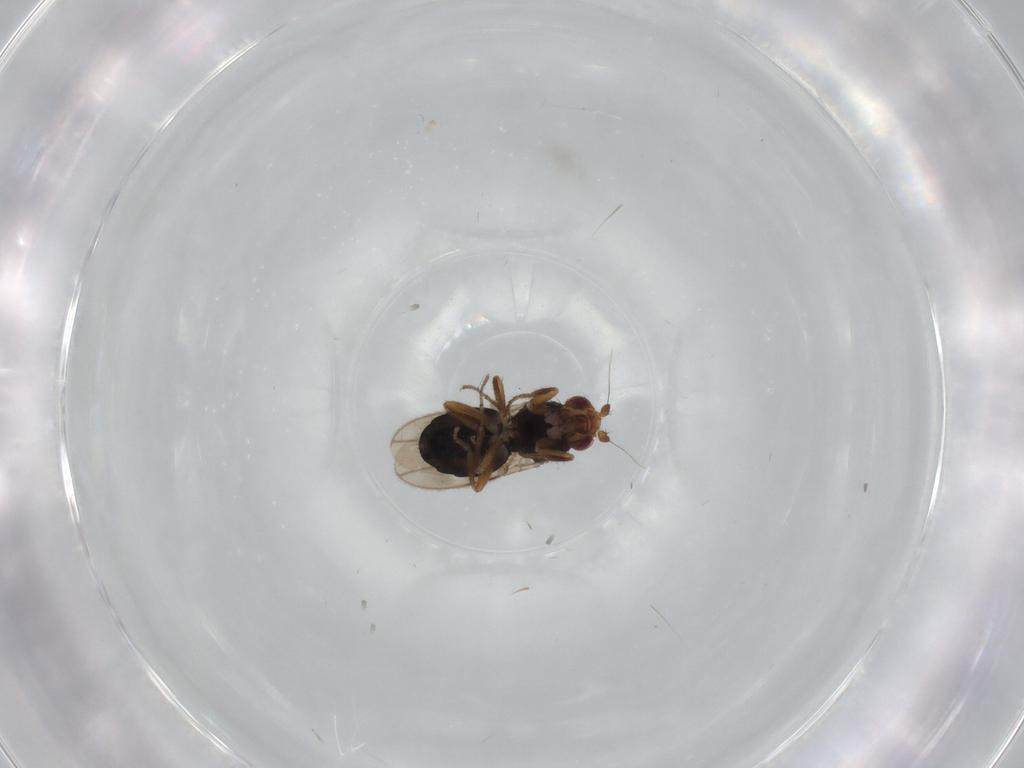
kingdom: Animalia
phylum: Arthropoda
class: Insecta
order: Diptera
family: Sphaeroceridae
